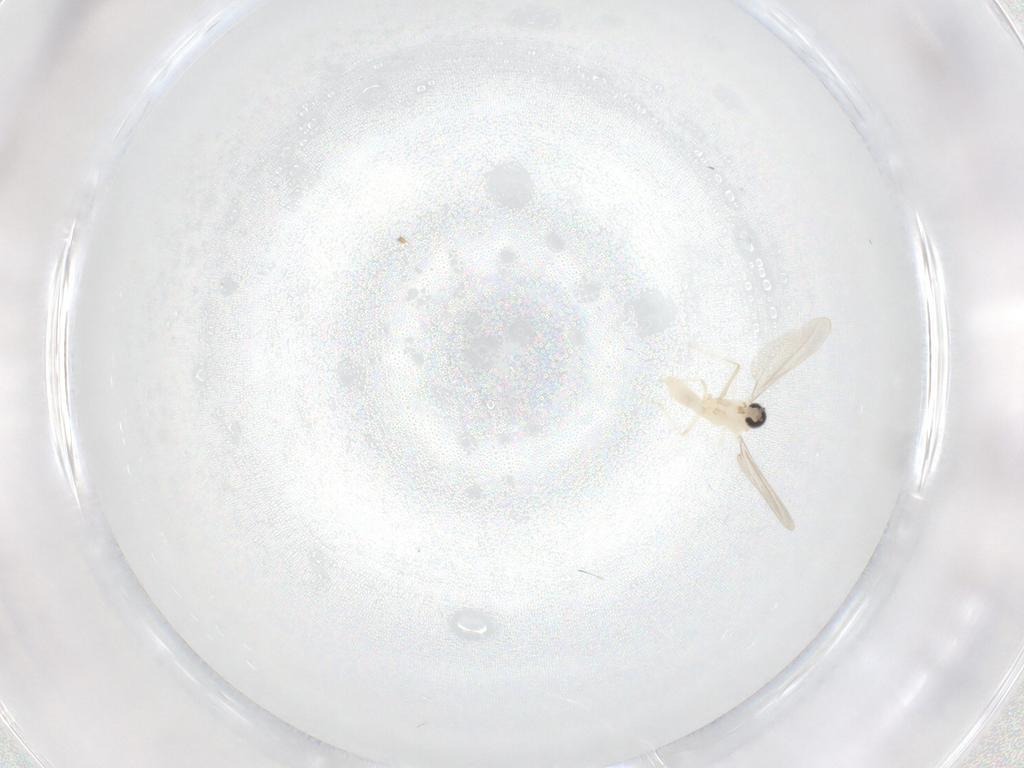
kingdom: Animalia
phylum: Arthropoda
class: Insecta
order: Diptera
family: Cecidomyiidae
